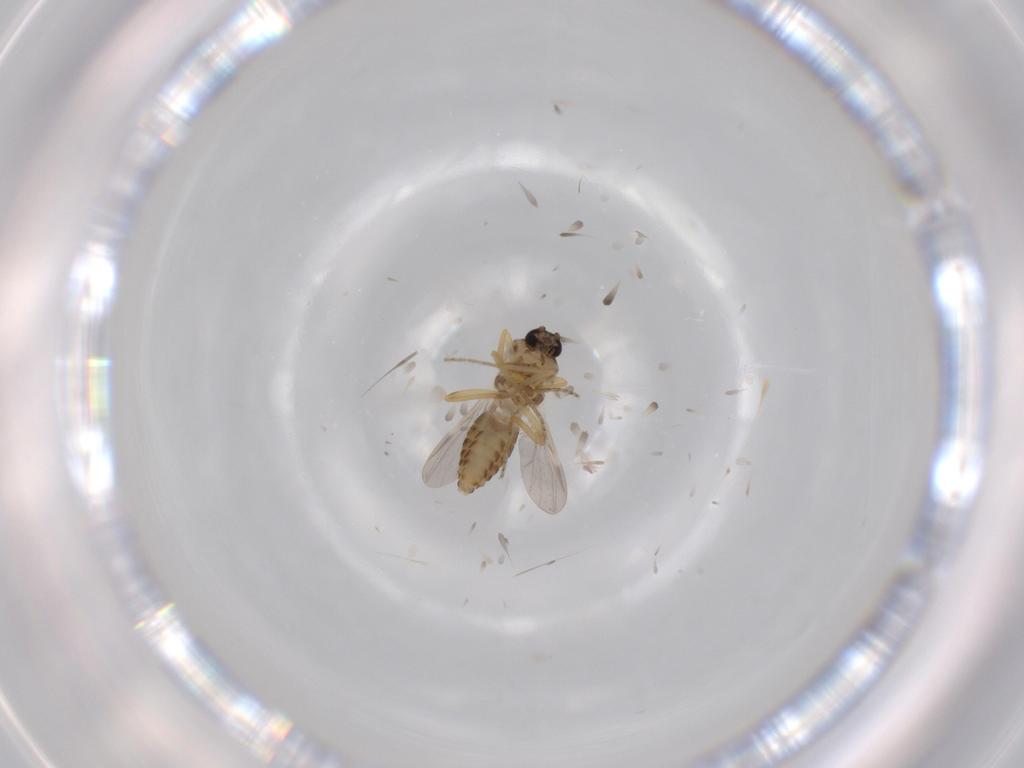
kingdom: Animalia
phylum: Arthropoda
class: Insecta
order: Diptera
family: Ceratopogonidae
